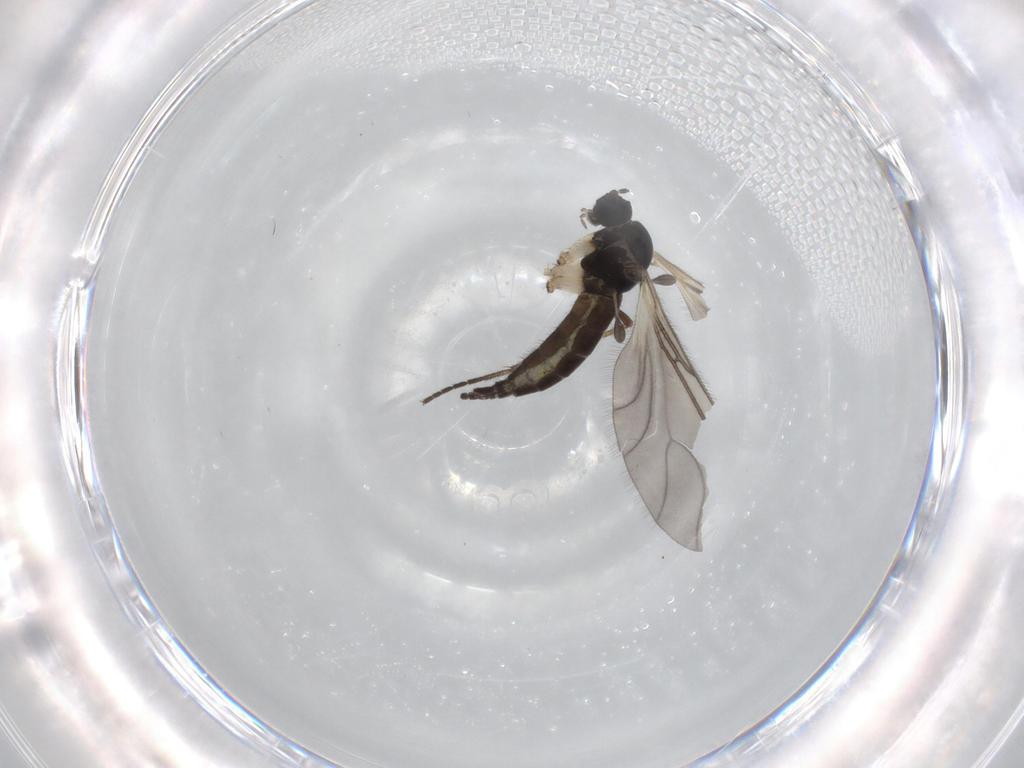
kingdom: Animalia
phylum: Arthropoda
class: Insecta
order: Diptera
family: Sciaridae
